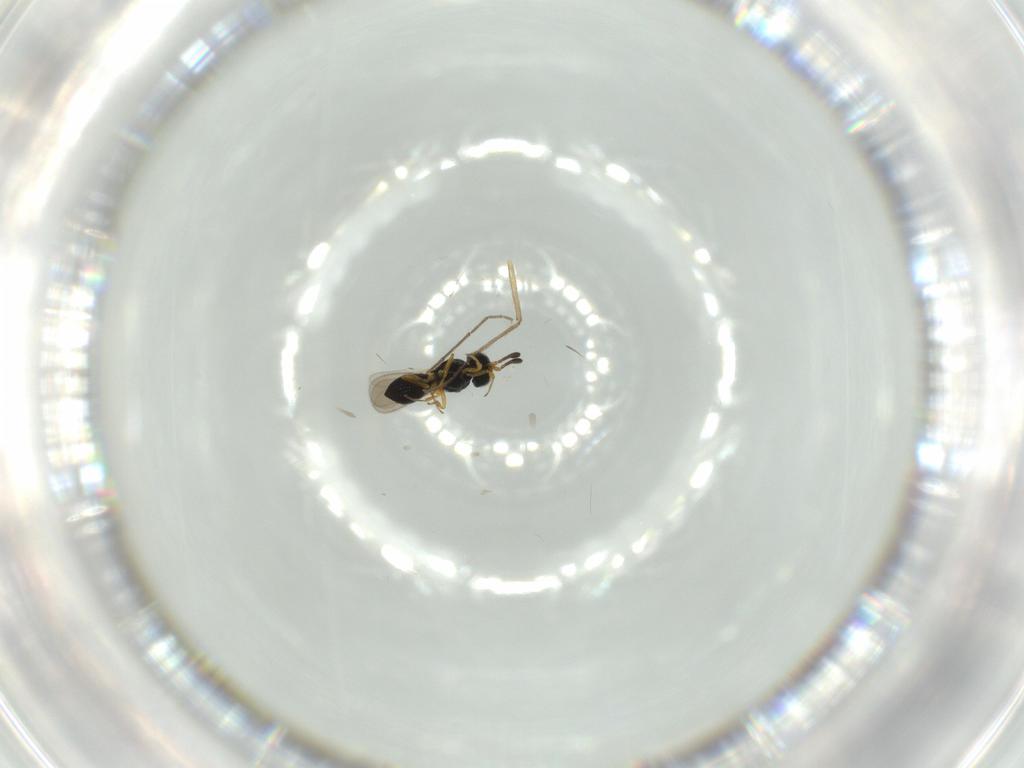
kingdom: Animalia
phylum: Arthropoda
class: Insecta
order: Hymenoptera
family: Scelionidae
